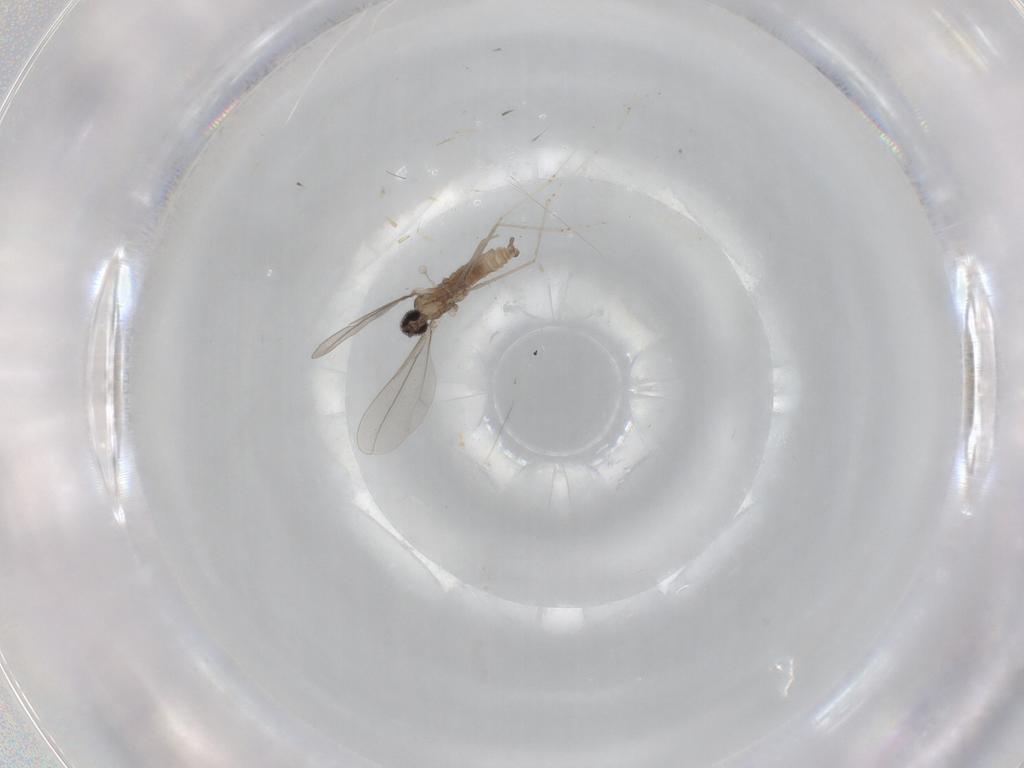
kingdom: Animalia
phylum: Arthropoda
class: Insecta
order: Diptera
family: Cecidomyiidae
